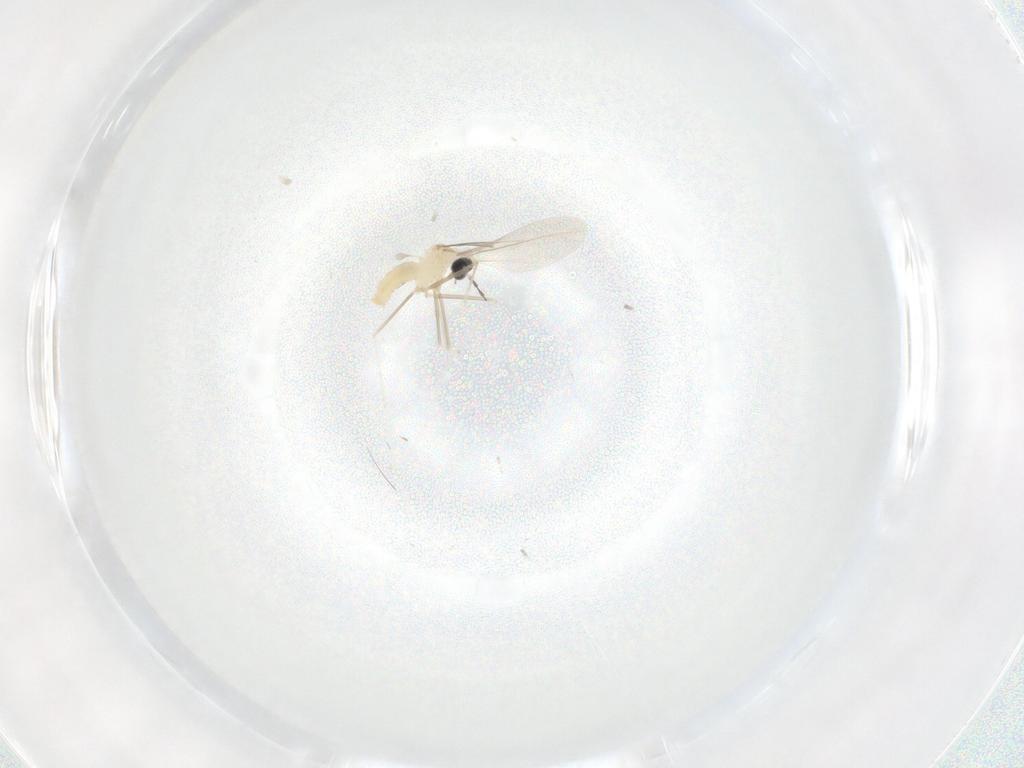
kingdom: Animalia
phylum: Arthropoda
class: Insecta
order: Diptera
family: Cecidomyiidae
